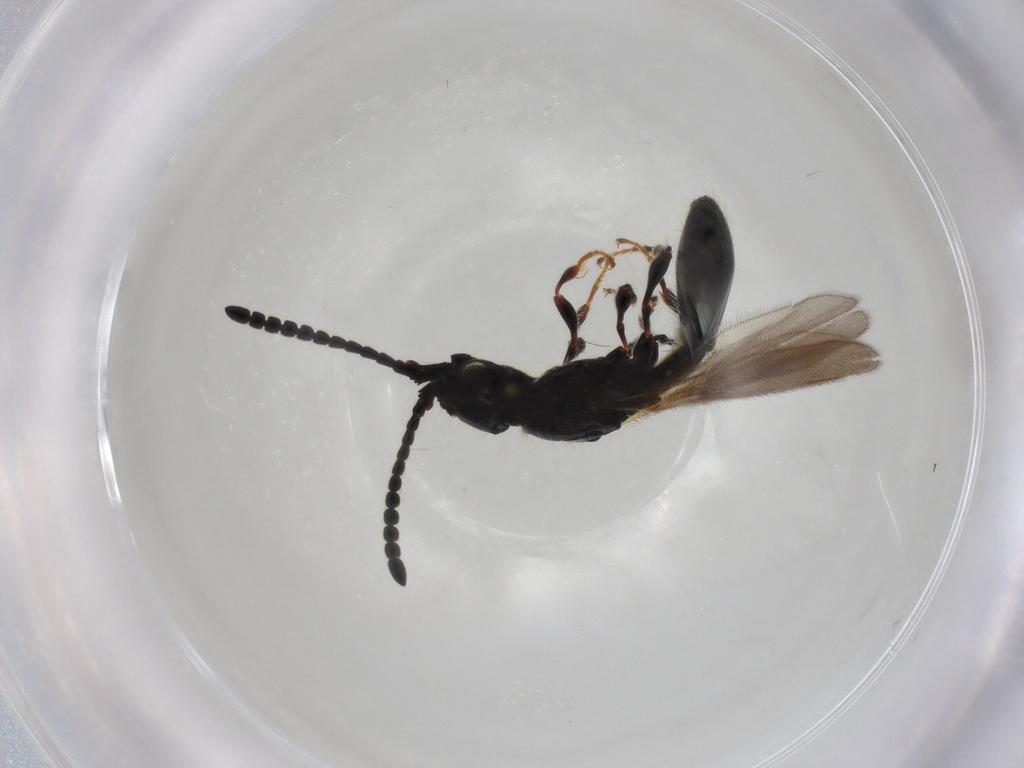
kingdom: Animalia
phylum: Arthropoda
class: Insecta
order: Hymenoptera
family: Diapriidae
